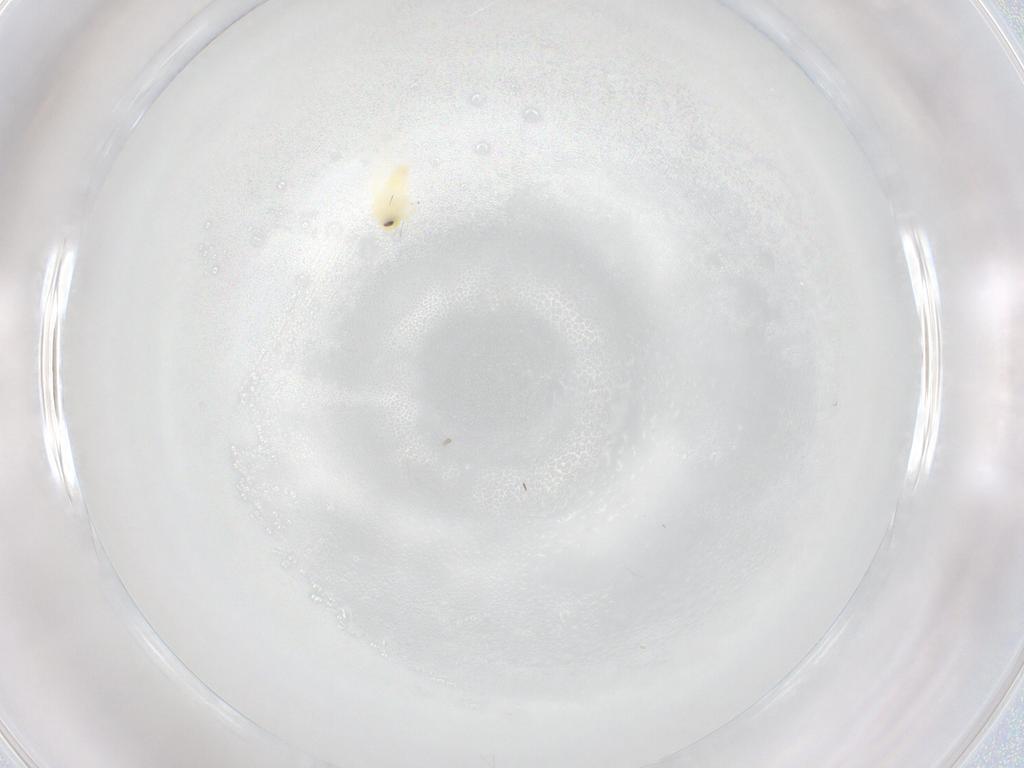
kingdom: Animalia
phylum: Arthropoda
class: Insecta
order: Hemiptera
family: Aleyrodidae
